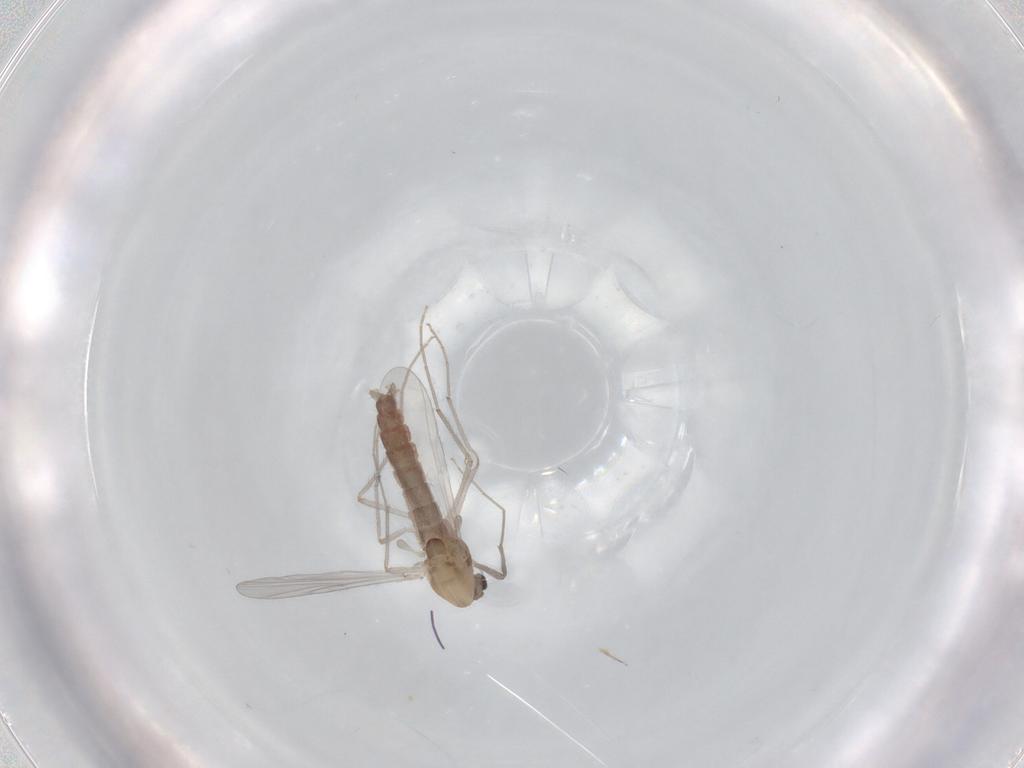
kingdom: Animalia
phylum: Arthropoda
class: Insecta
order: Diptera
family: Chironomidae
